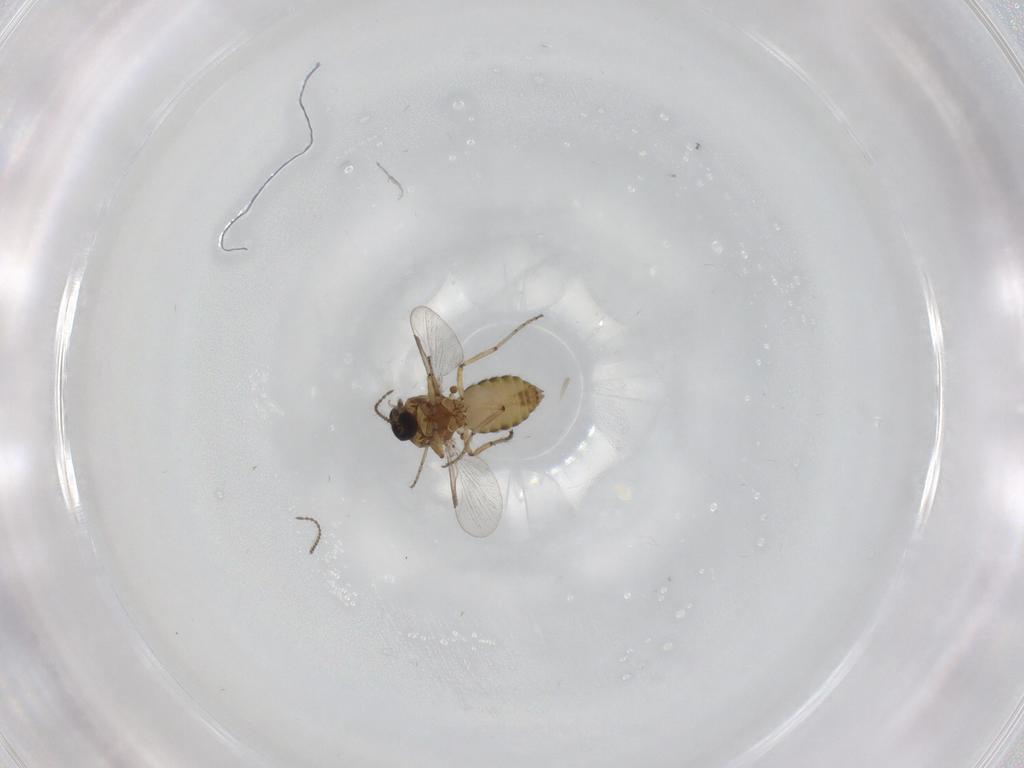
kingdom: Animalia
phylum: Arthropoda
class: Insecta
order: Diptera
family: Ceratopogonidae
